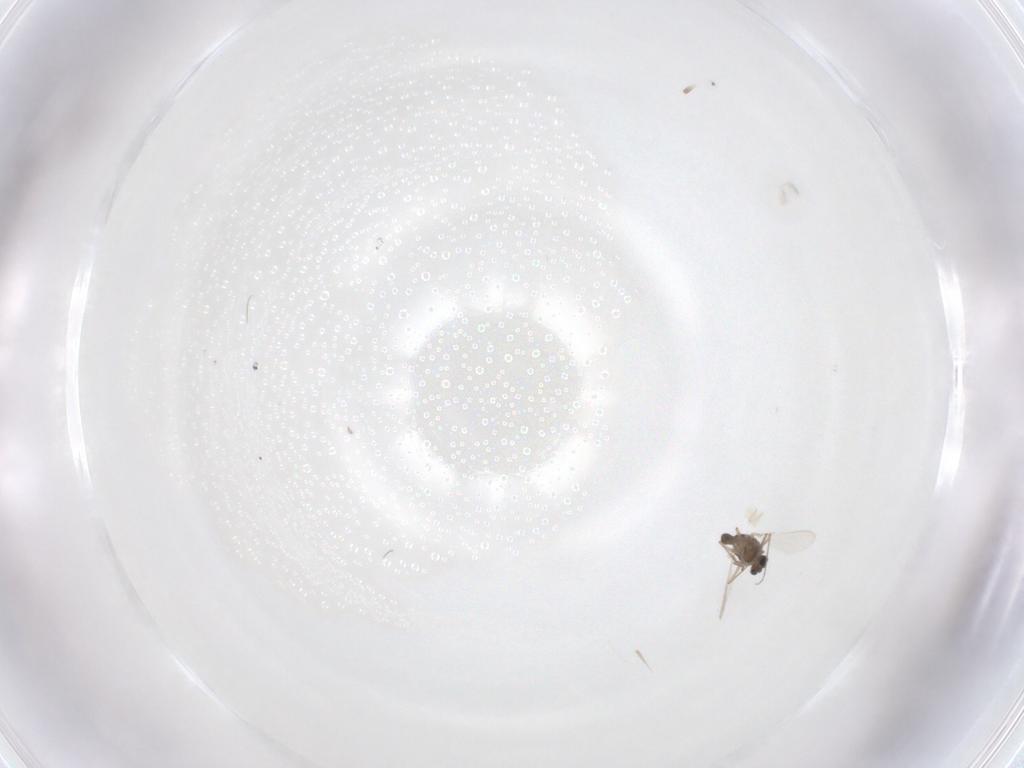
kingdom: Animalia
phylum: Arthropoda
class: Insecta
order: Diptera
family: Chironomidae
